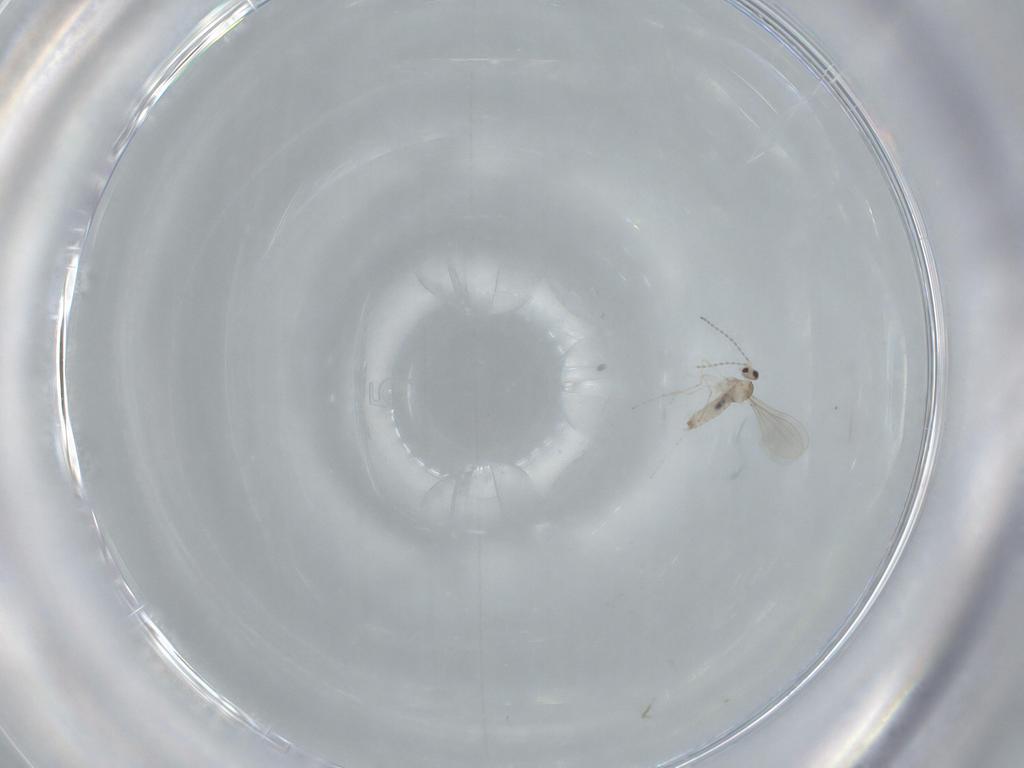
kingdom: Animalia
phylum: Arthropoda
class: Insecta
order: Diptera
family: Cecidomyiidae
